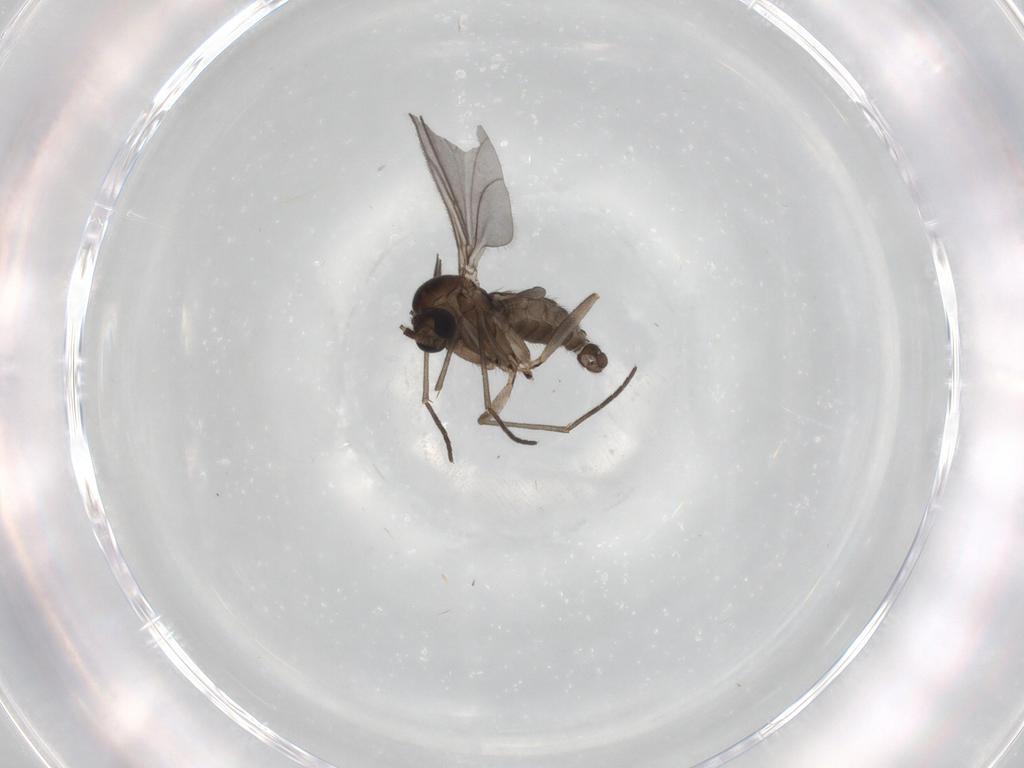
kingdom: Animalia
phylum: Arthropoda
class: Insecta
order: Diptera
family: Sciaridae
